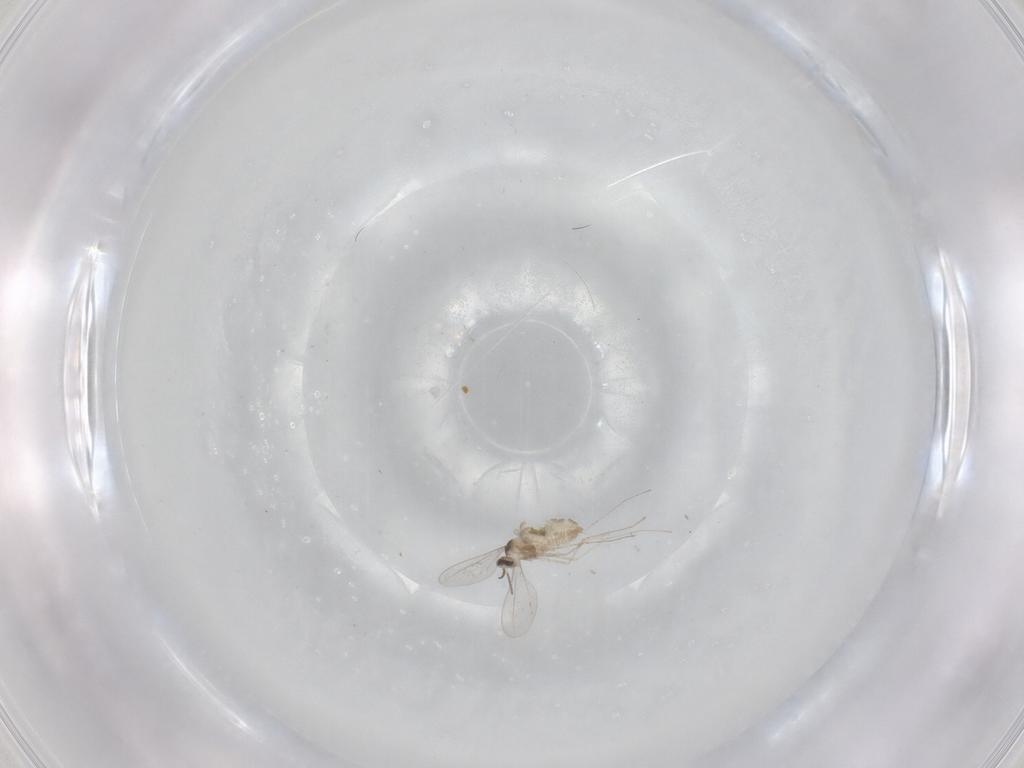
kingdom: Animalia
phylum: Arthropoda
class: Insecta
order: Diptera
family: Cecidomyiidae
